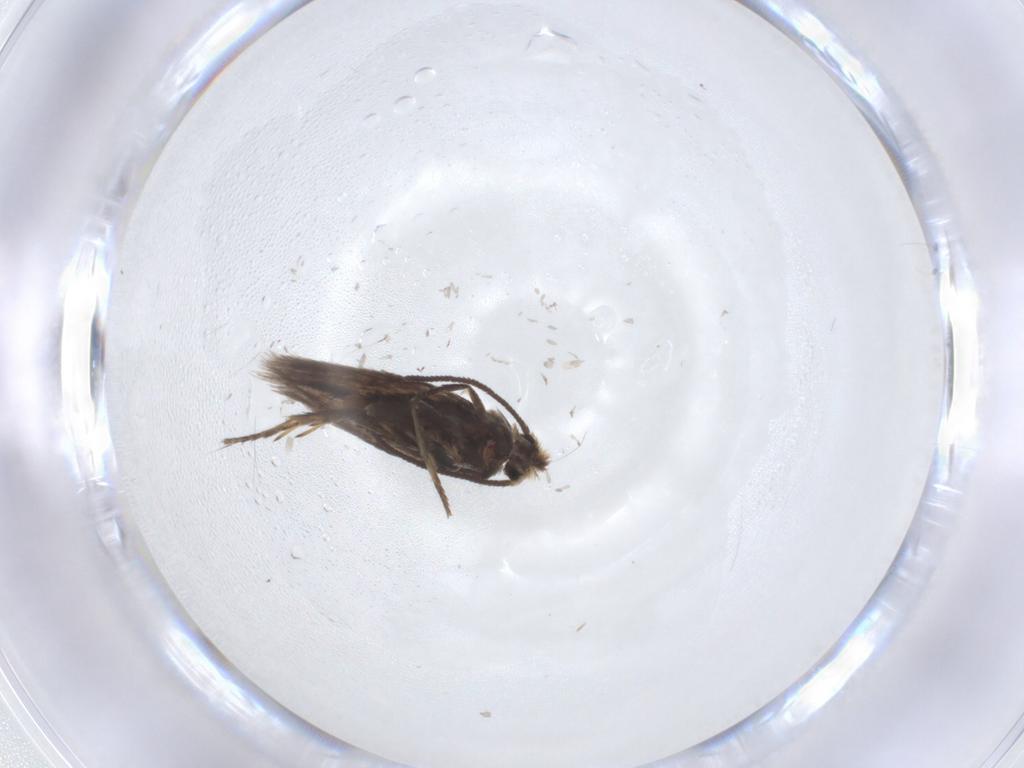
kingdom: Animalia
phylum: Arthropoda
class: Insecta
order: Lepidoptera
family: Nepticulidae
